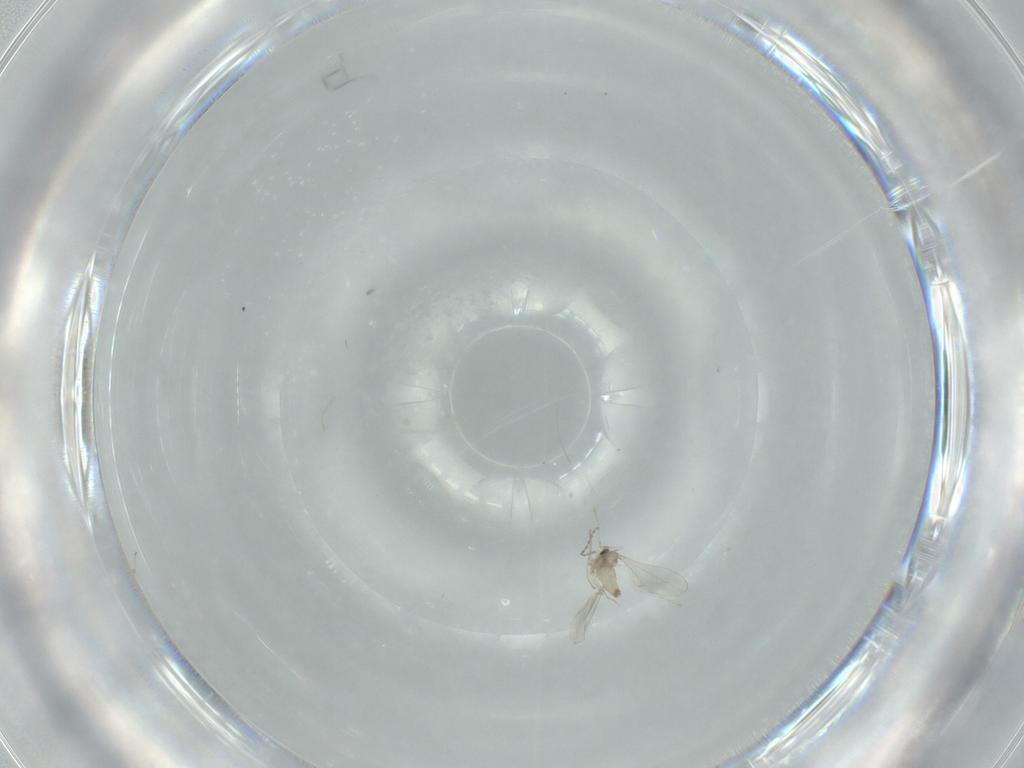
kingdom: Animalia
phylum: Arthropoda
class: Insecta
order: Diptera
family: Cecidomyiidae
